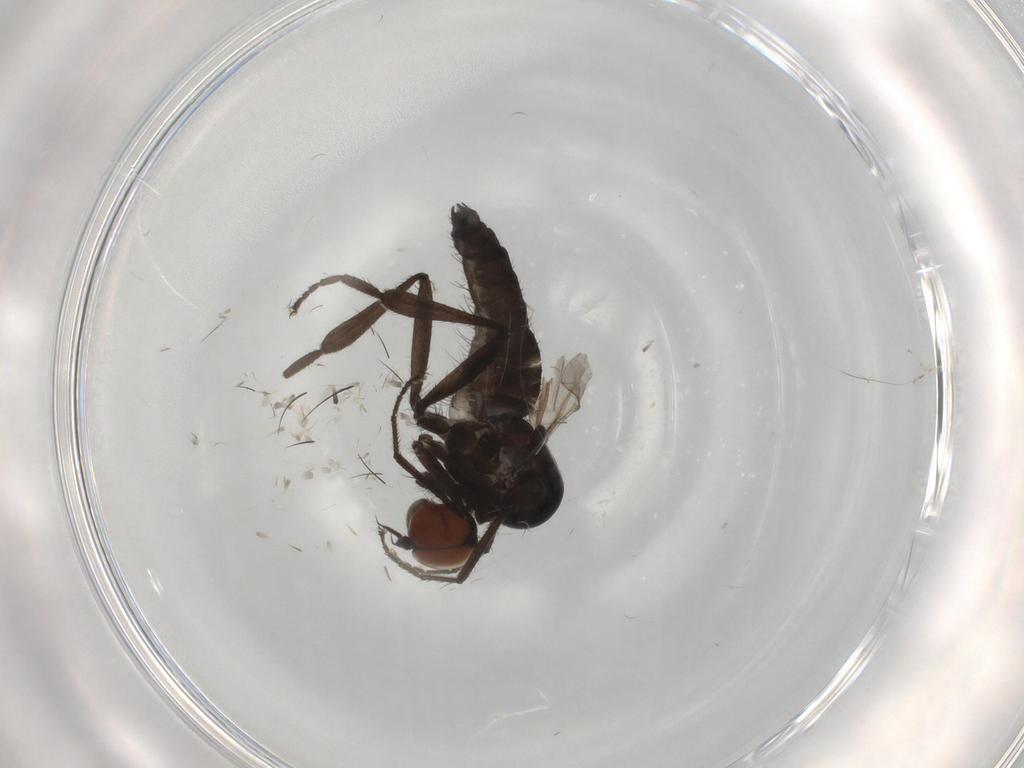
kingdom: Animalia
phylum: Arthropoda
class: Insecta
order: Diptera
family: Hybotidae
